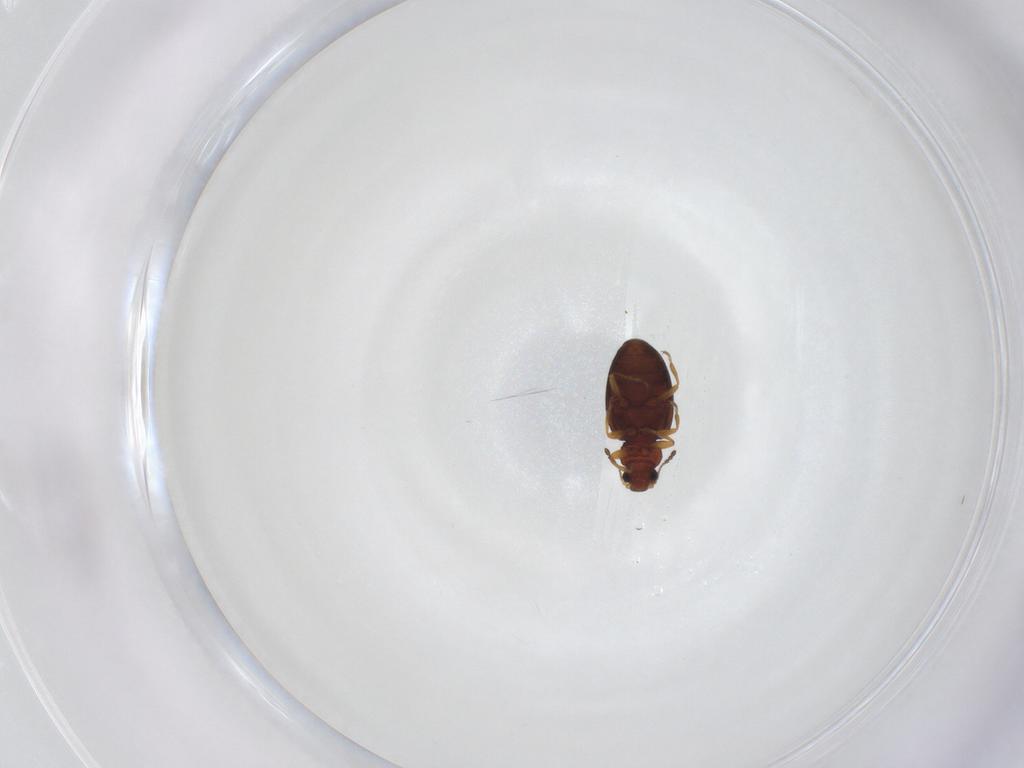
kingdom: Animalia
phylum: Arthropoda
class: Insecta
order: Coleoptera
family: Latridiidae
